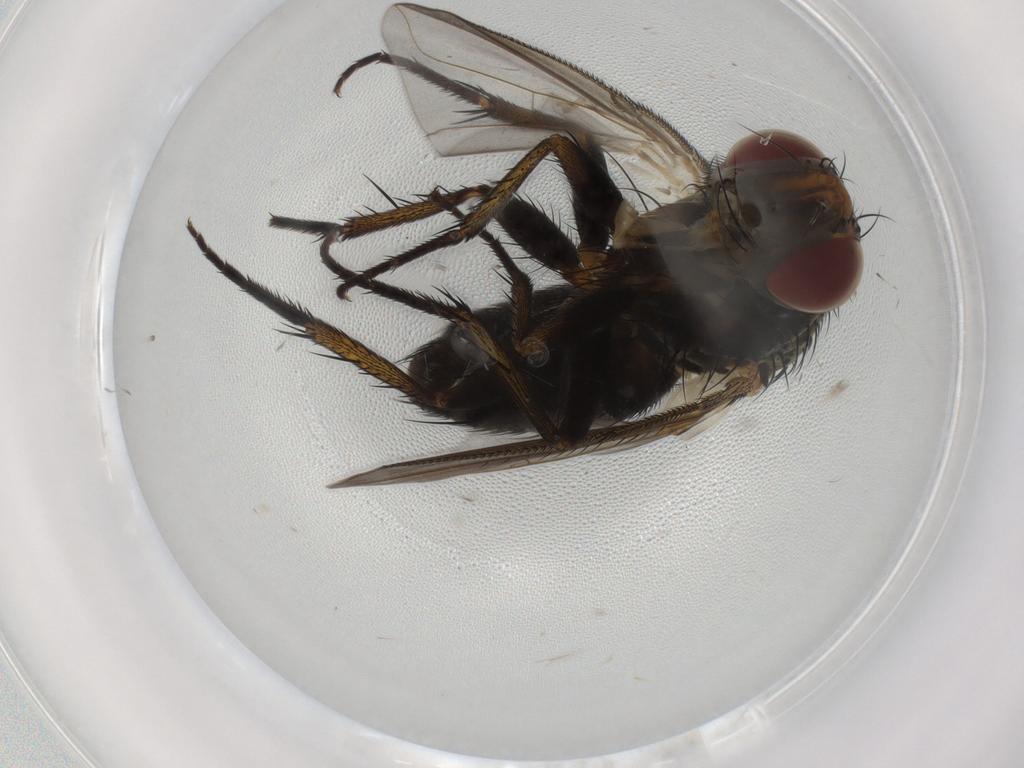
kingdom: Animalia
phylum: Arthropoda
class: Insecta
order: Diptera
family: Tachinidae
